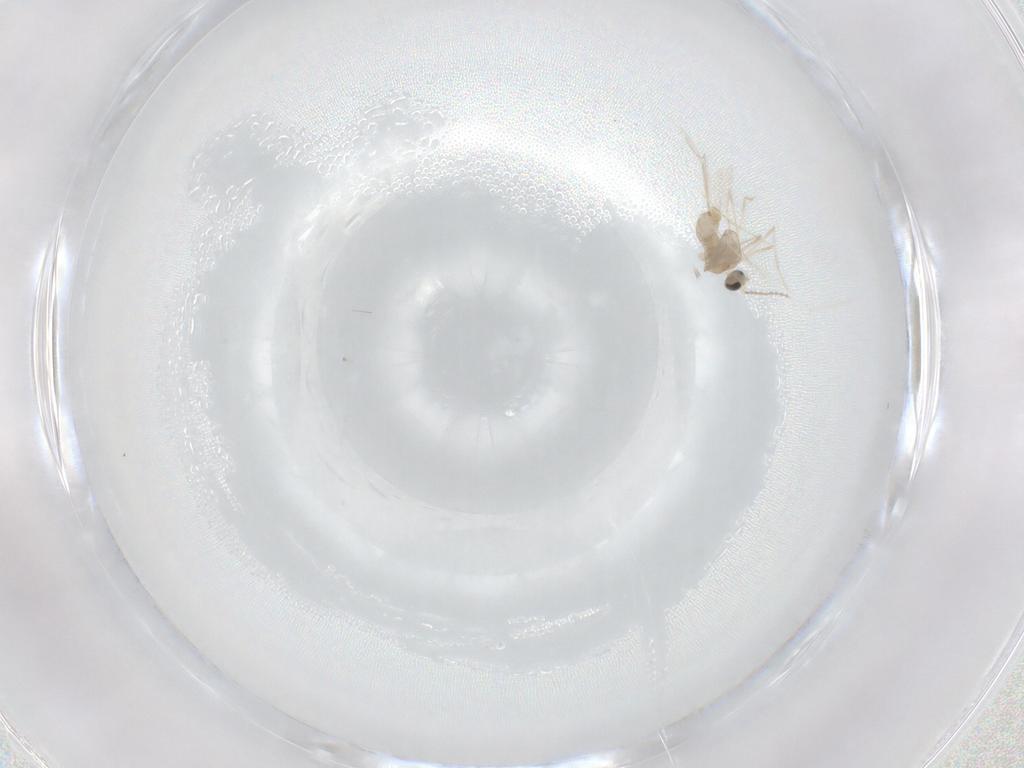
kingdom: Animalia
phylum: Arthropoda
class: Insecta
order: Diptera
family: Cecidomyiidae
